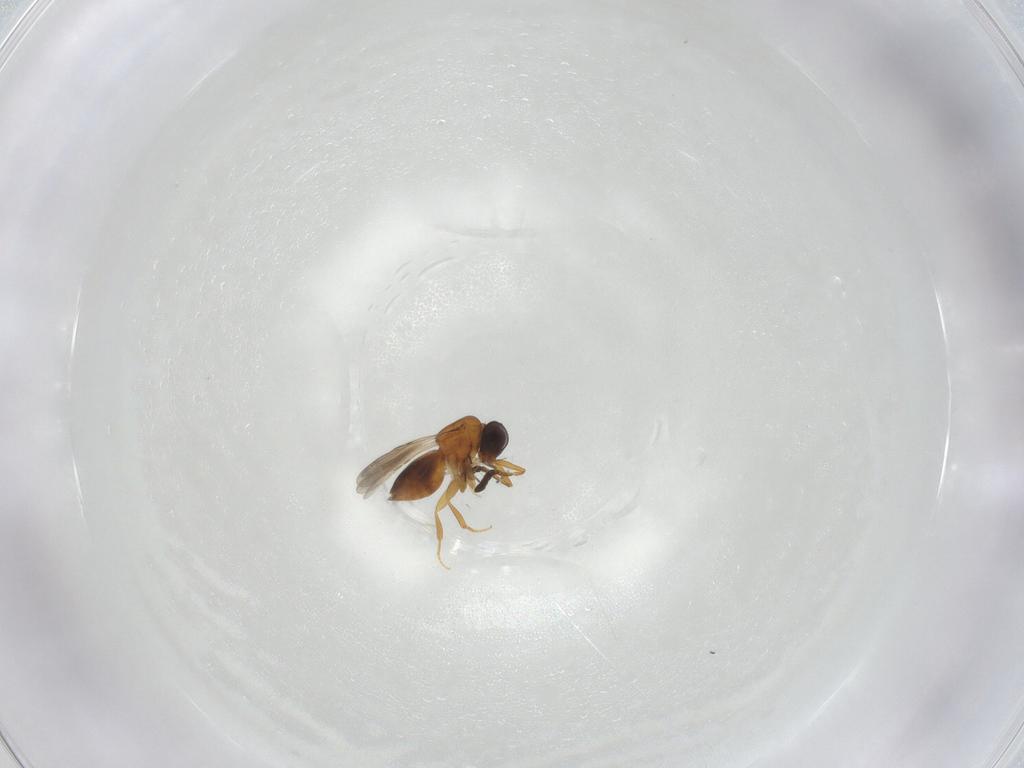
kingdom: Animalia
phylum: Arthropoda
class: Insecta
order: Hymenoptera
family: Ceraphronidae
